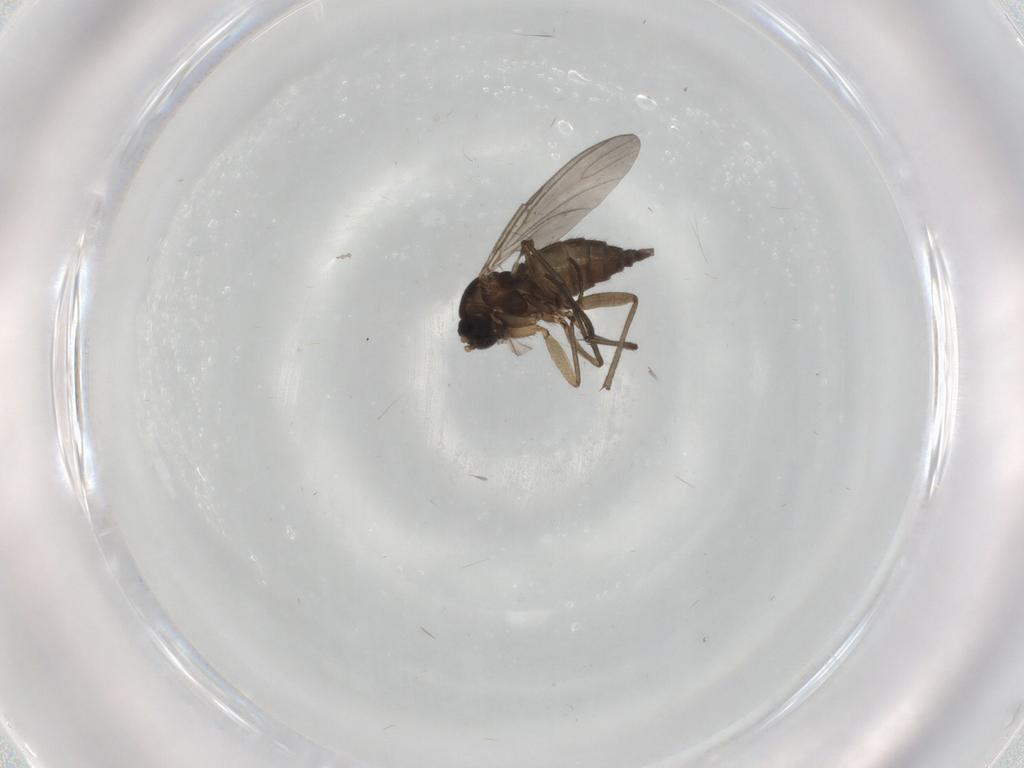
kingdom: Animalia
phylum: Arthropoda
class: Insecta
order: Diptera
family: Sciaridae
